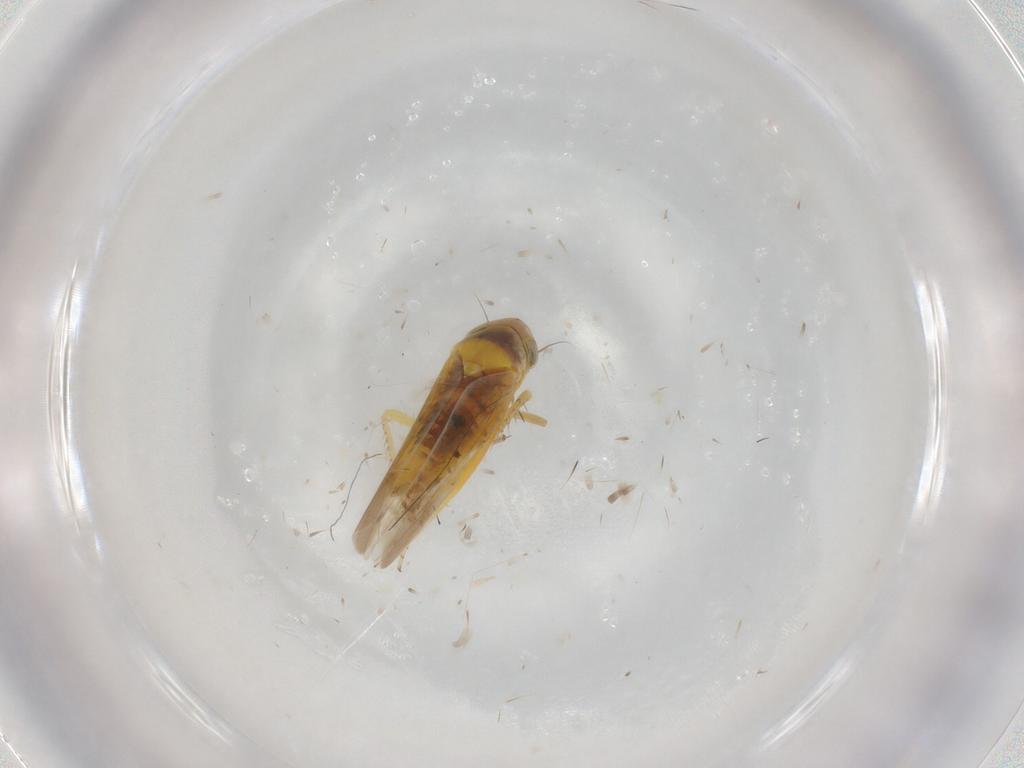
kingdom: Animalia
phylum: Arthropoda
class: Insecta
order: Hemiptera
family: Cicadellidae
